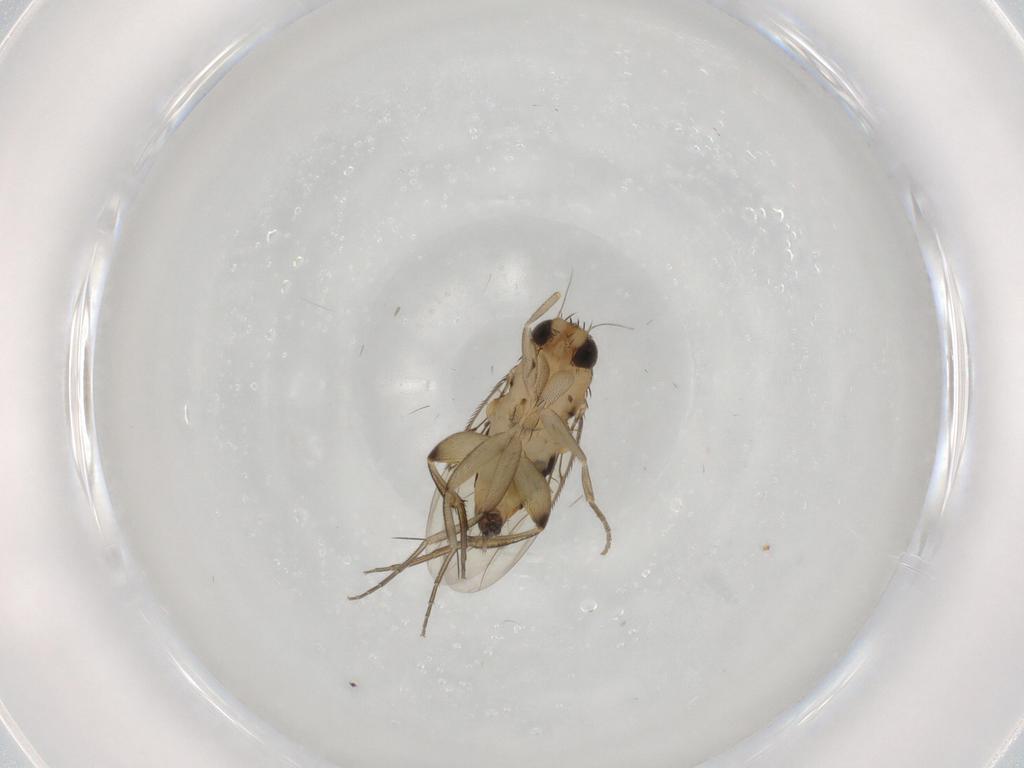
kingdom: Animalia
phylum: Arthropoda
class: Insecta
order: Diptera
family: Phoridae
